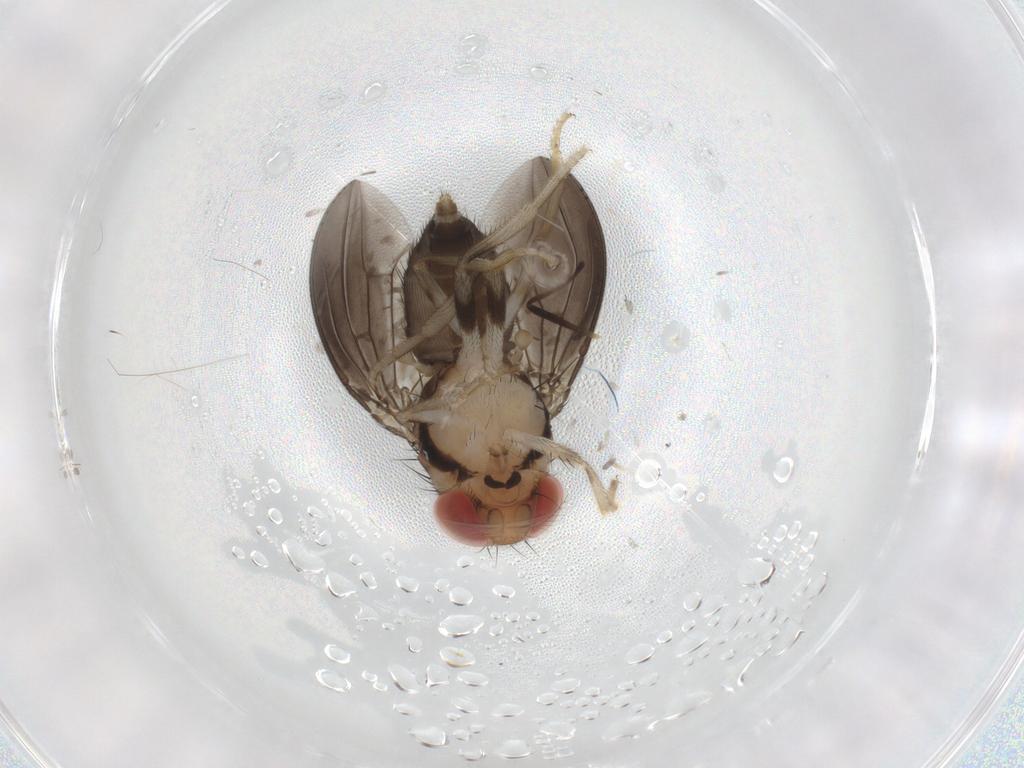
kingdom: Animalia
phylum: Arthropoda
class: Insecta
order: Diptera
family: Drosophilidae
